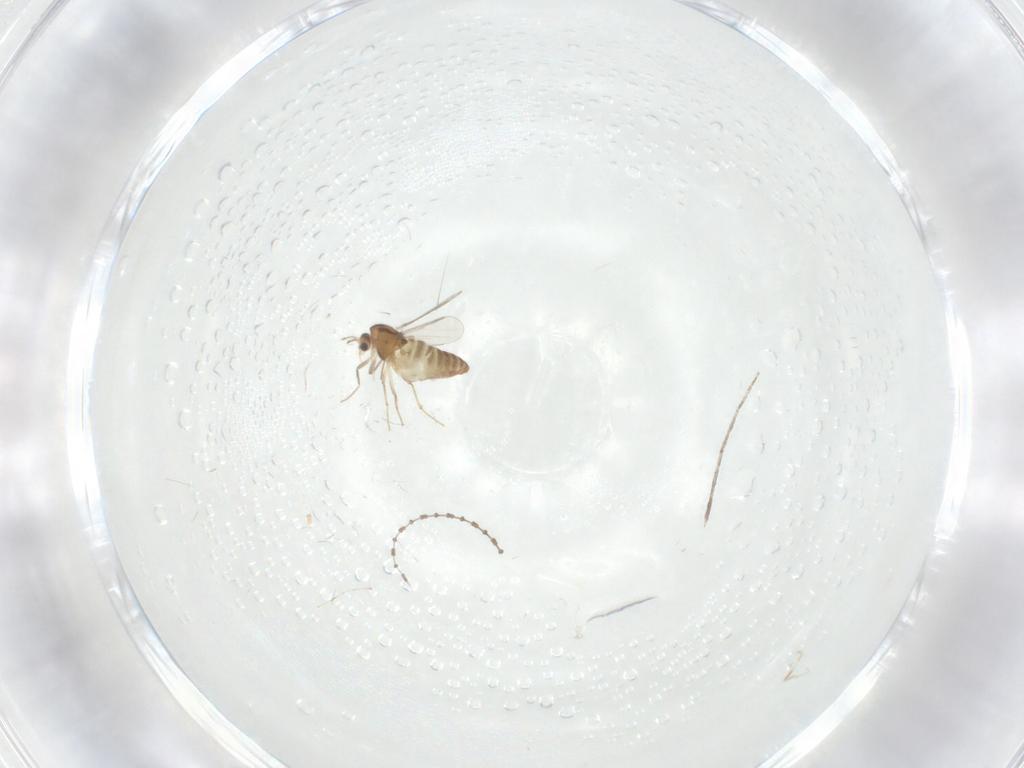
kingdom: Animalia
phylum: Arthropoda
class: Insecta
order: Diptera
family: Chironomidae
